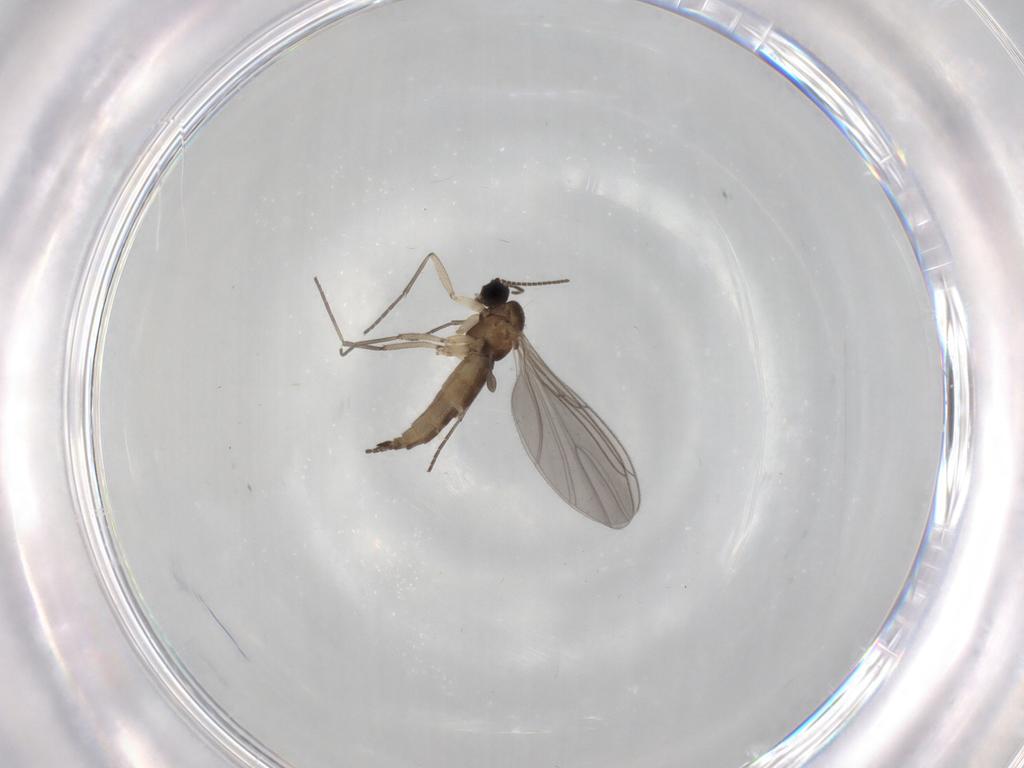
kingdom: Animalia
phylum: Arthropoda
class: Insecta
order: Diptera
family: Sciaridae
